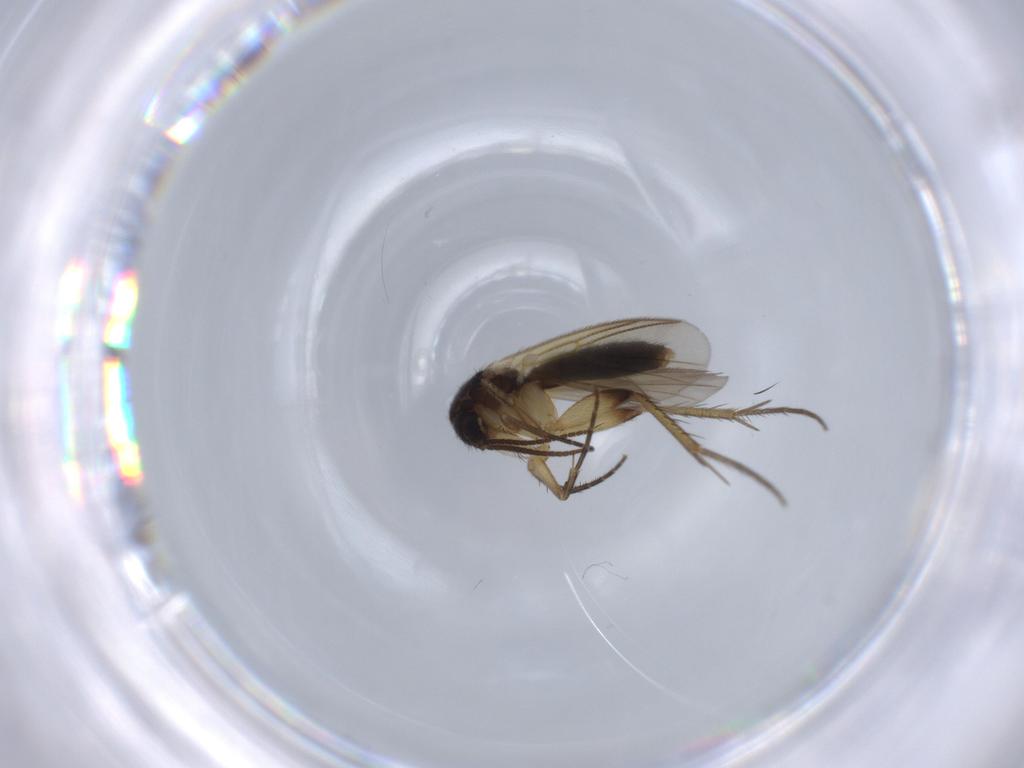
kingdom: Animalia
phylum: Arthropoda
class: Insecta
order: Diptera
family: Mycetophilidae
